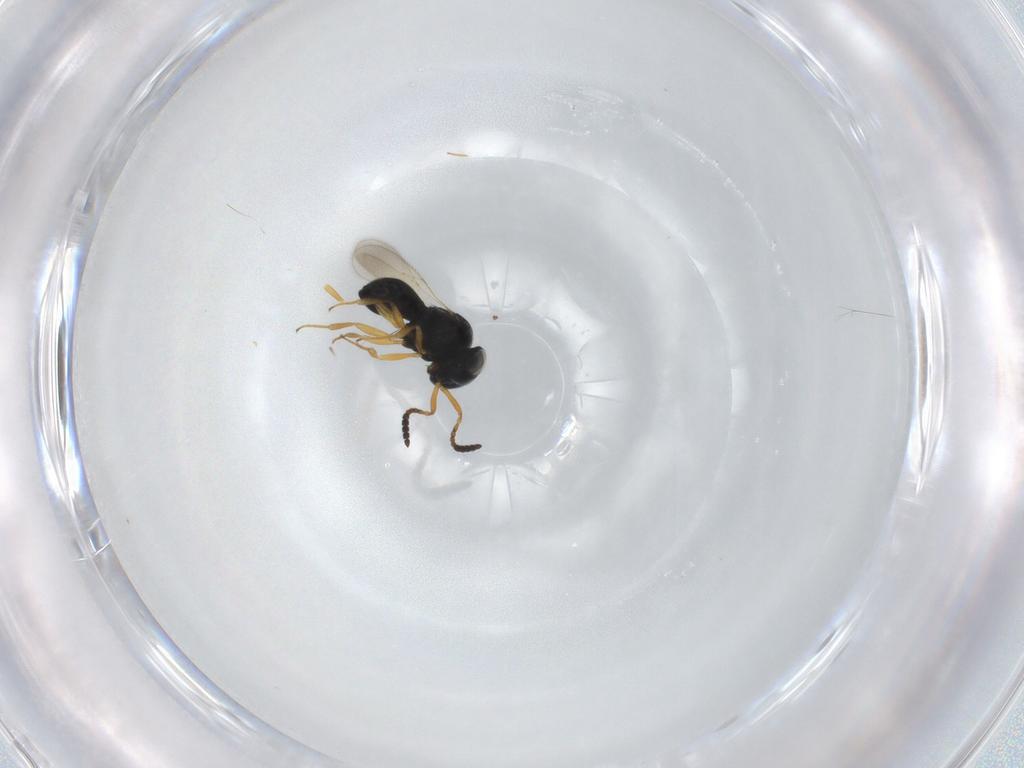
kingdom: Animalia
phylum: Arthropoda
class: Insecta
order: Hymenoptera
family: Scelionidae
